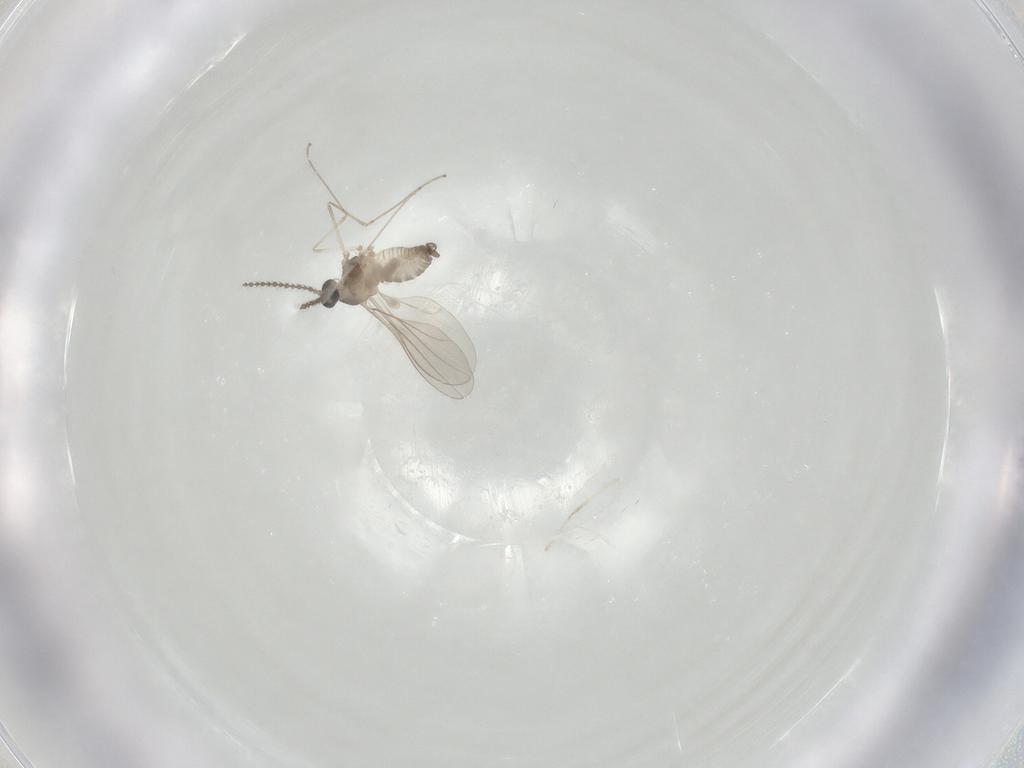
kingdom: Animalia
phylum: Arthropoda
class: Insecta
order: Diptera
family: Cecidomyiidae
